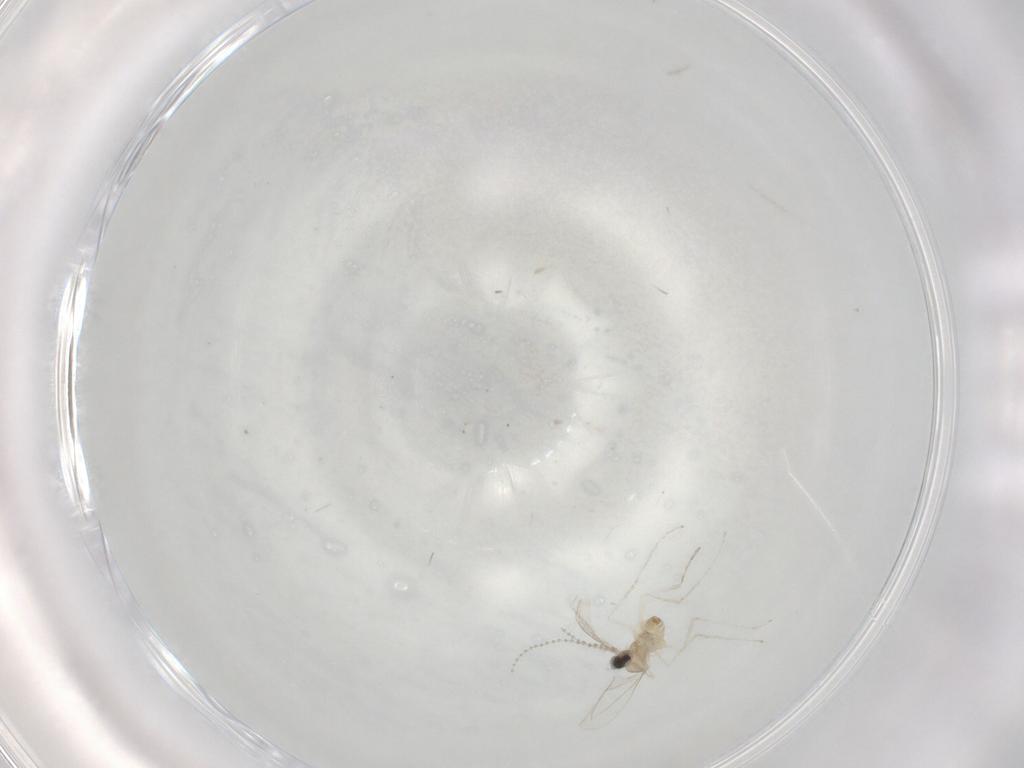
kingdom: Animalia
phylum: Arthropoda
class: Insecta
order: Diptera
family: Cecidomyiidae
